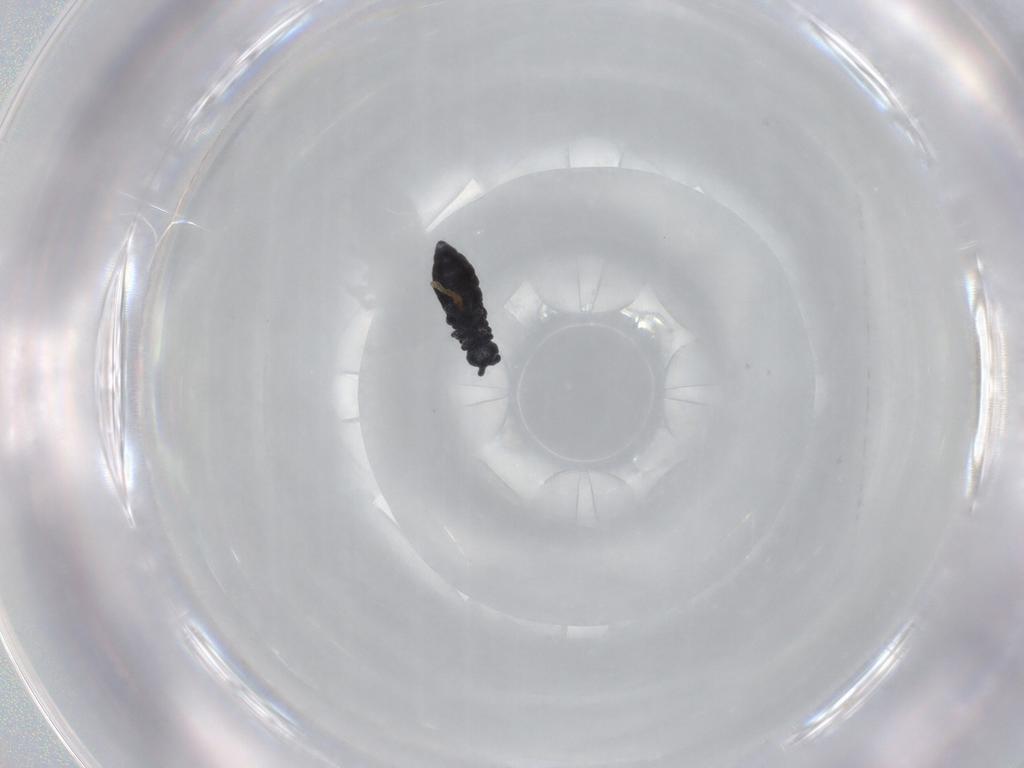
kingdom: Animalia
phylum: Arthropoda
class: Collembola
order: Poduromorpha
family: Hypogastruridae
